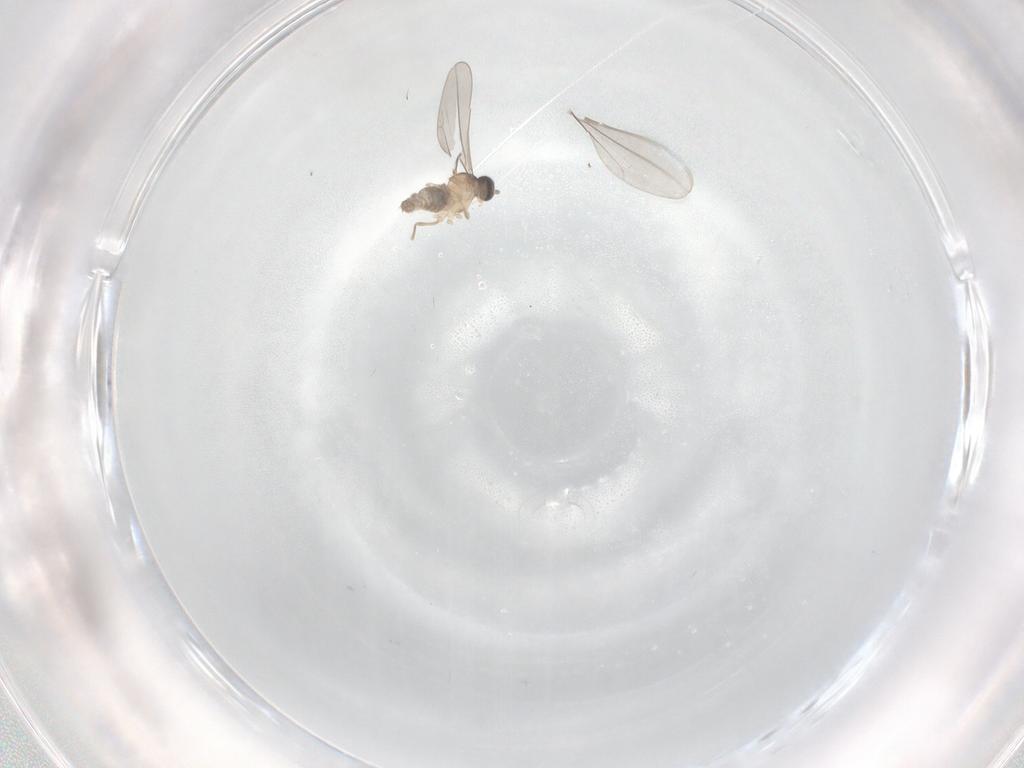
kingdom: Animalia
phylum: Arthropoda
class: Insecta
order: Diptera
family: Cecidomyiidae
